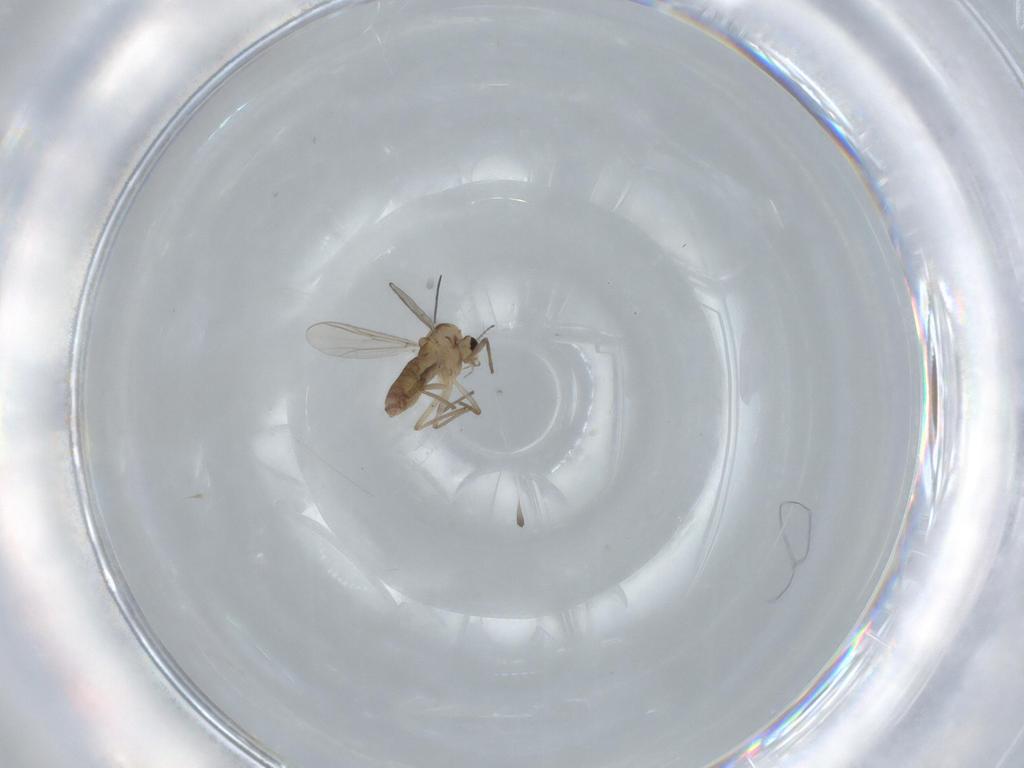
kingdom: Animalia
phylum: Arthropoda
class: Insecta
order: Diptera
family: Chironomidae
